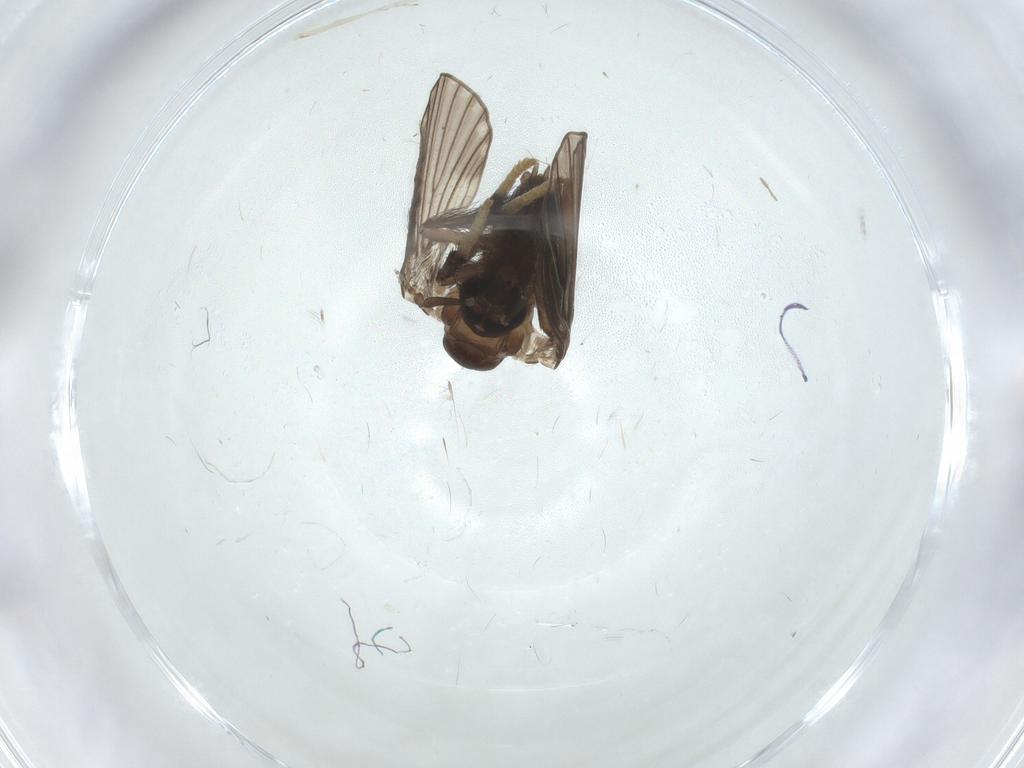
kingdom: Animalia
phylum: Arthropoda
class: Insecta
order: Diptera
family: Psychodidae
